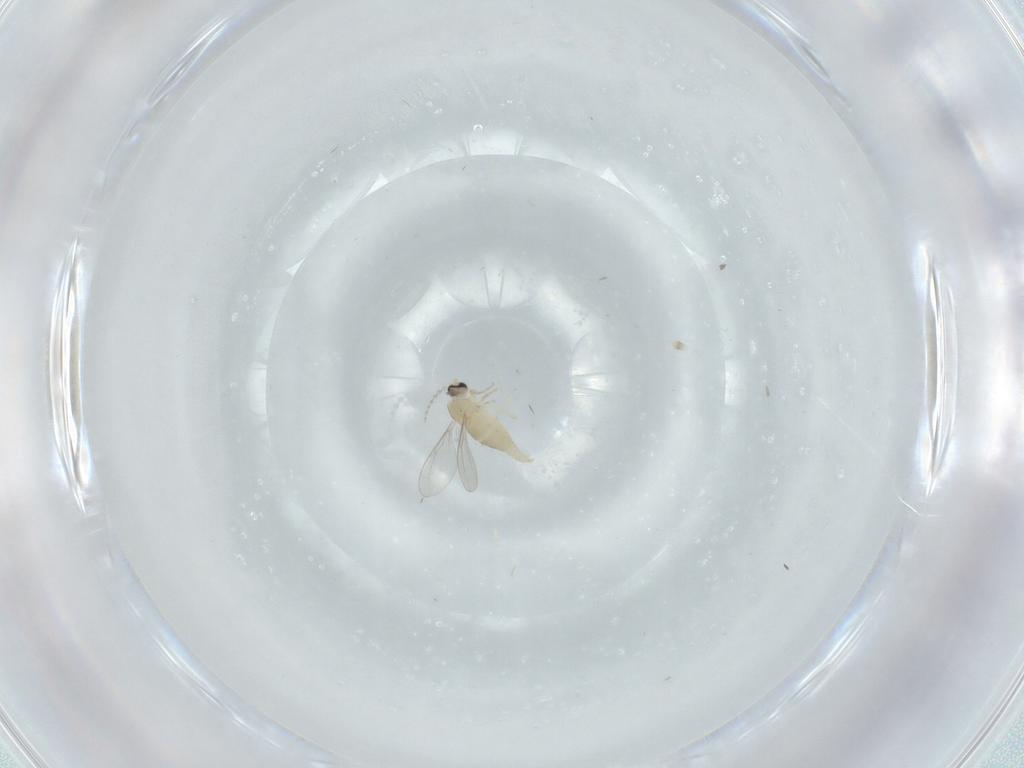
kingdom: Animalia
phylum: Arthropoda
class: Insecta
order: Diptera
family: Cecidomyiidae
